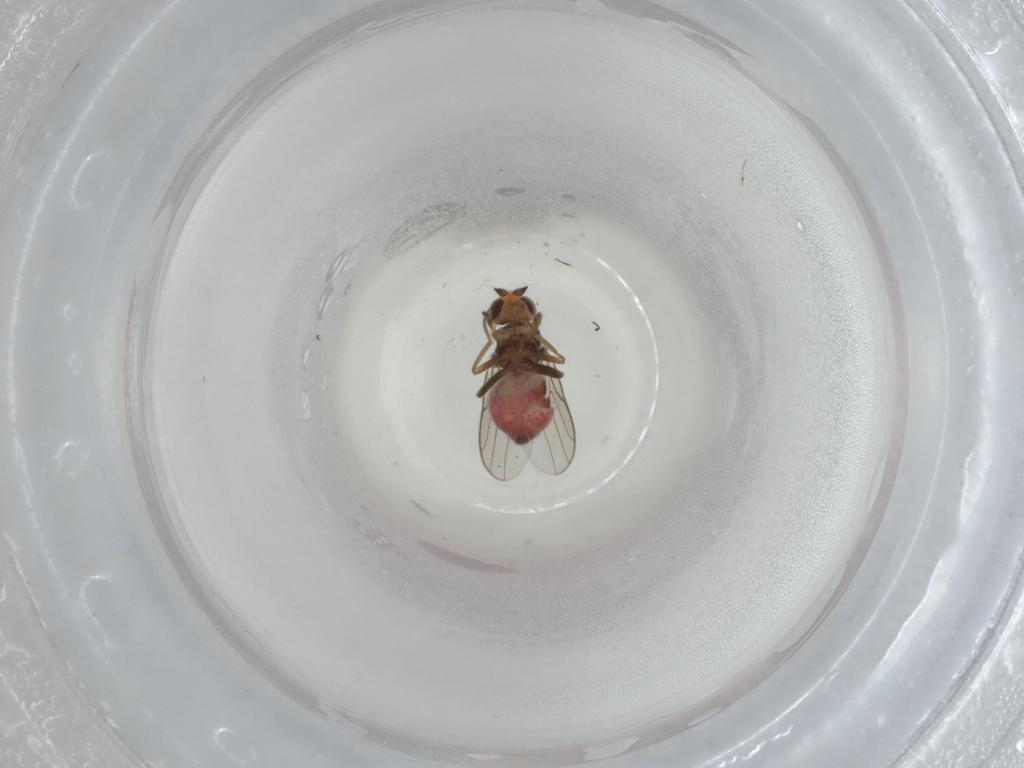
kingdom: Animalia
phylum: Arthropoda
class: Insecta
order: Diptera
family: Chloropidae
